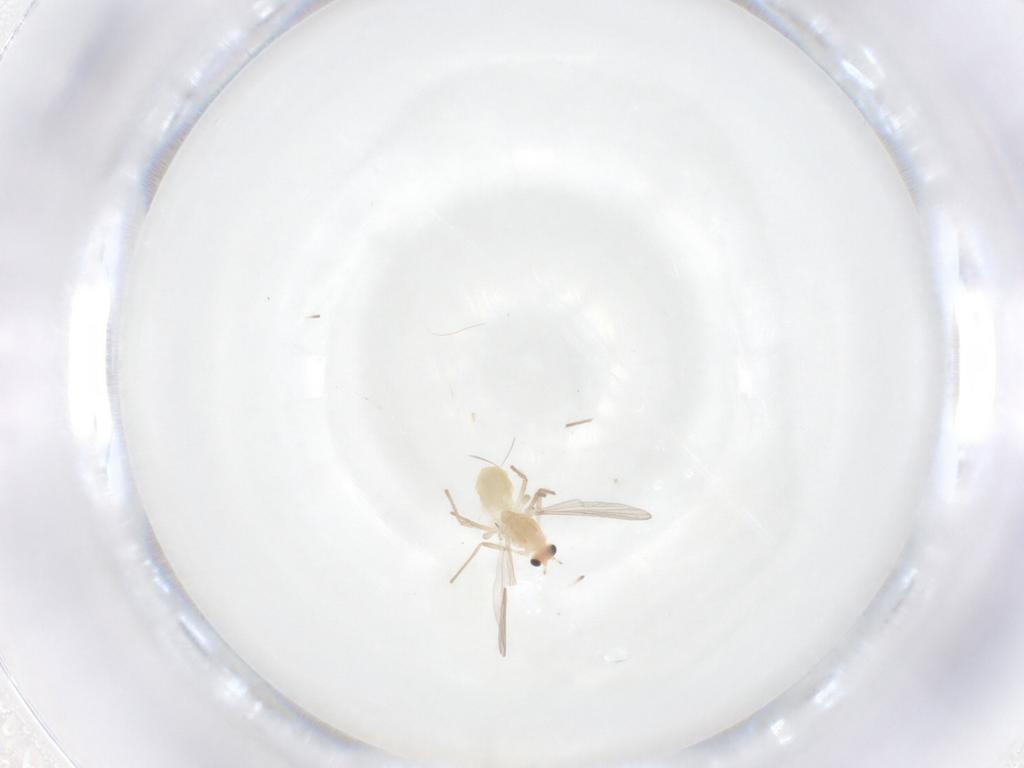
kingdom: Animalia
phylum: Arthropoda
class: Insecta
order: Diptera
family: Chironomidae
